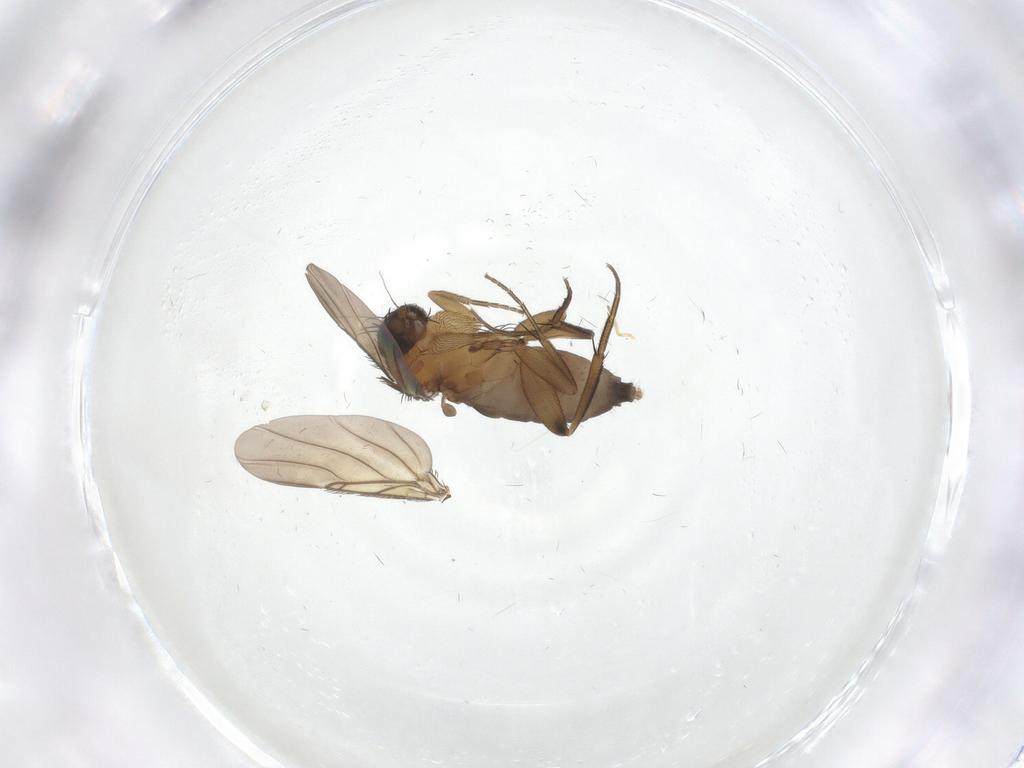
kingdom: Animalia
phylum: Arthropoda
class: Insecta
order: Diptera
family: Phoridae
